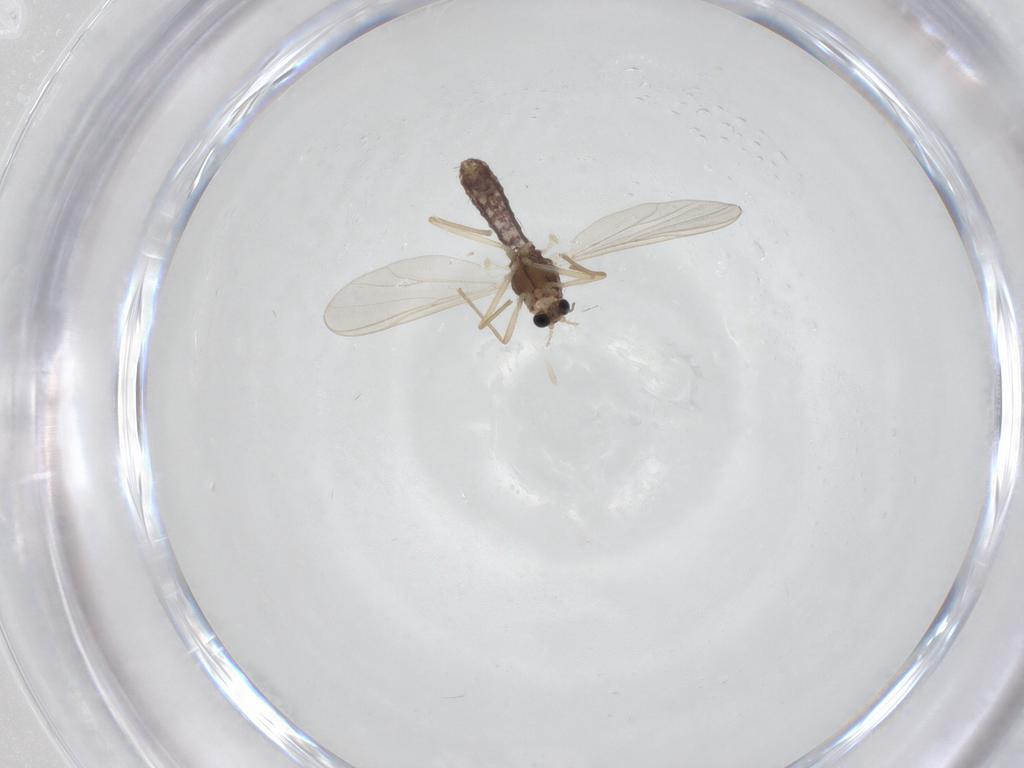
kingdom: Animalia
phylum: Arthropoda
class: Insecta
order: Diptera
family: Chironomidae
